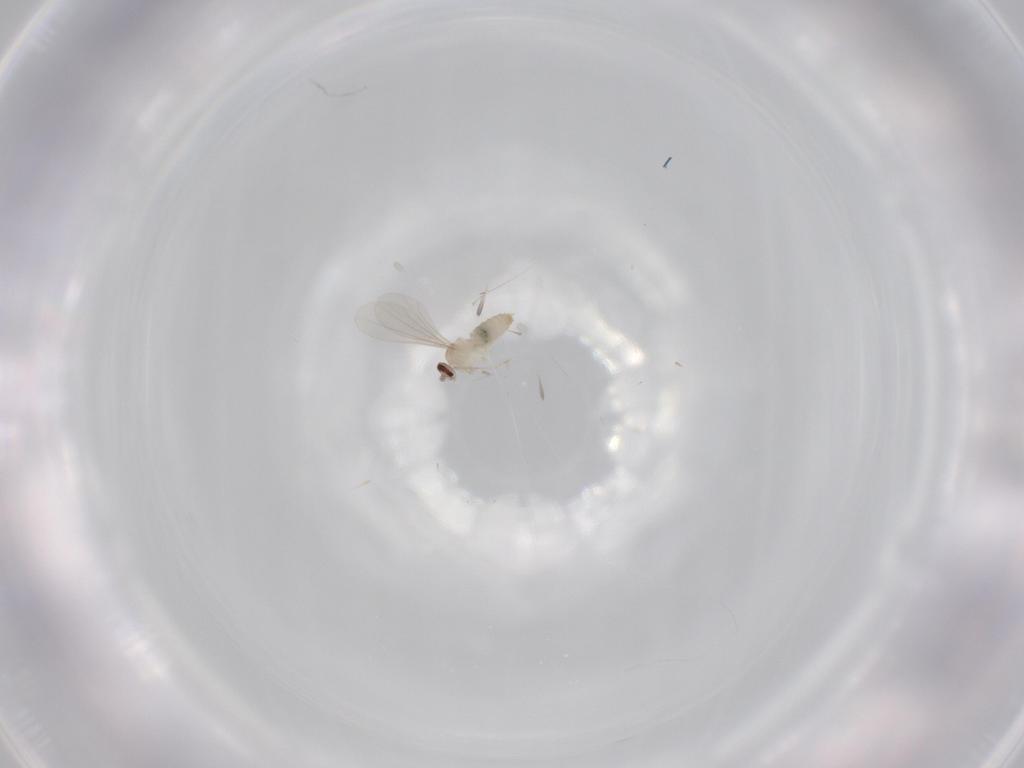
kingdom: Animalia
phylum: Arthropoda
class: Insecta
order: Diptera
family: Cecidomyiidae
